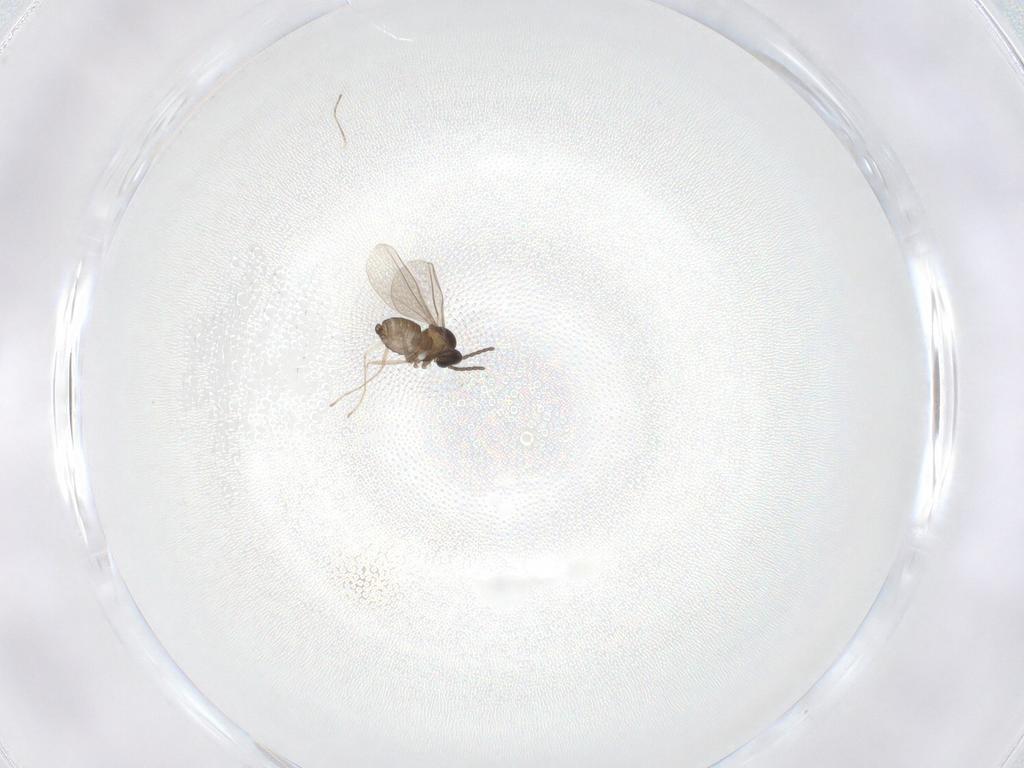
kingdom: Animalia
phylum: Arthropoda
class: Insecta
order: Diptera
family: Cecidomyiidae
